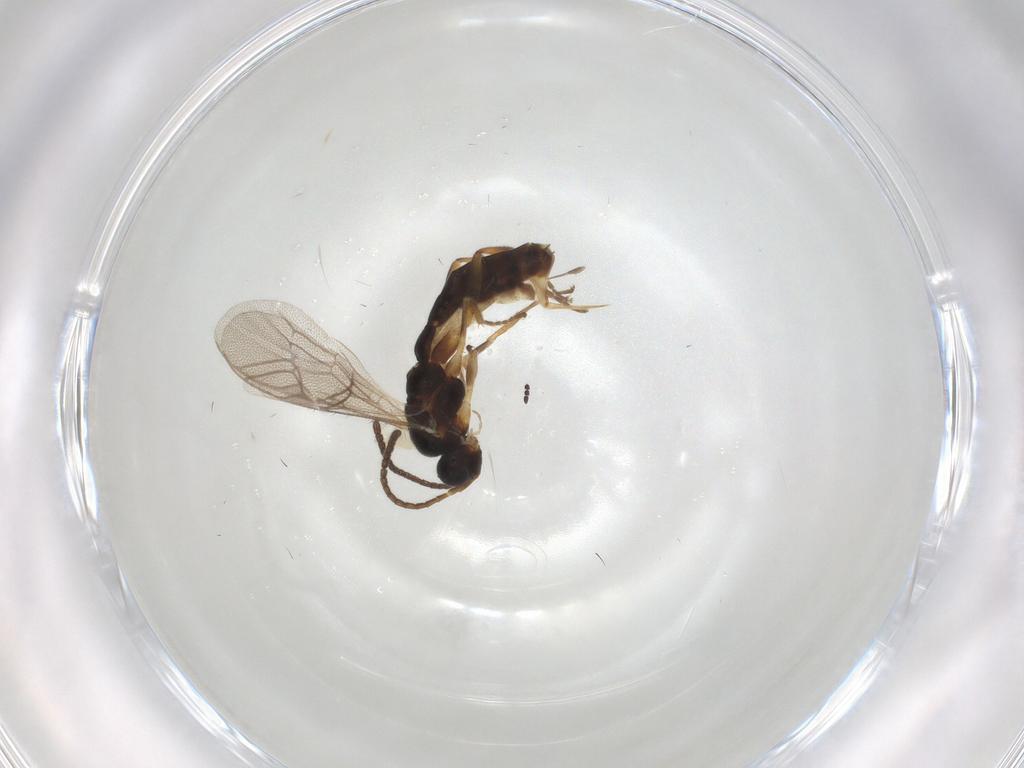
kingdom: Animalia
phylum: Arthropoda
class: Insecta
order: Hymenoptera
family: Ichneumonidae
